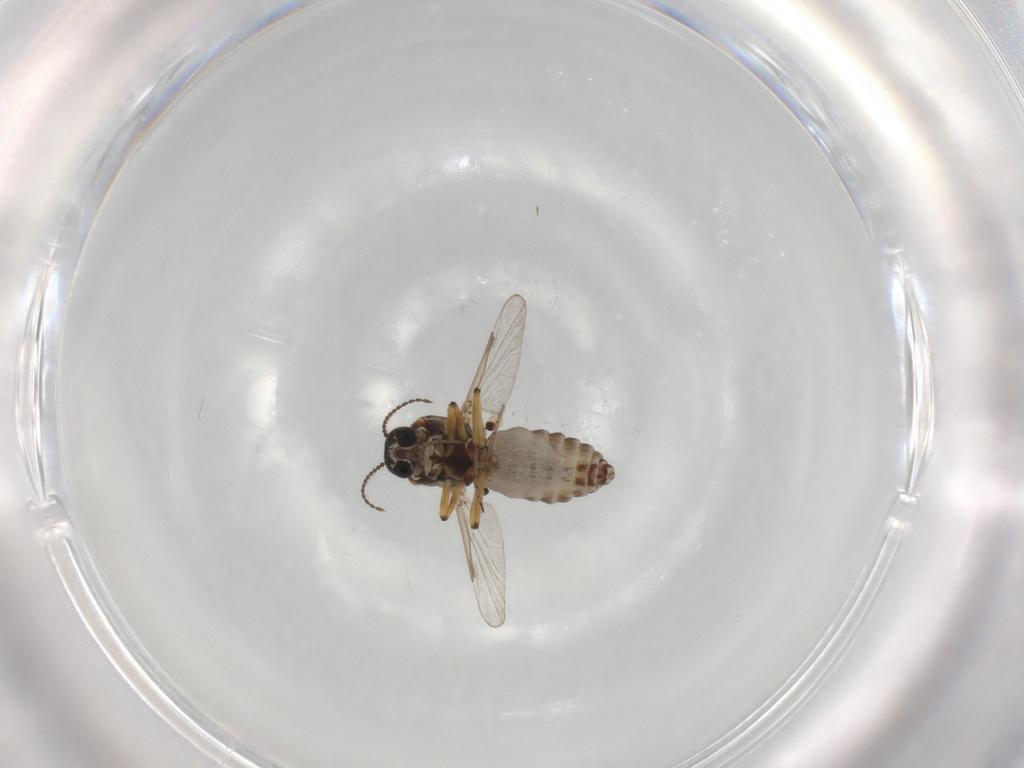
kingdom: Animalia
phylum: Arthropoda
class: Insecta
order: Diptera
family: Ceratopogonidae
